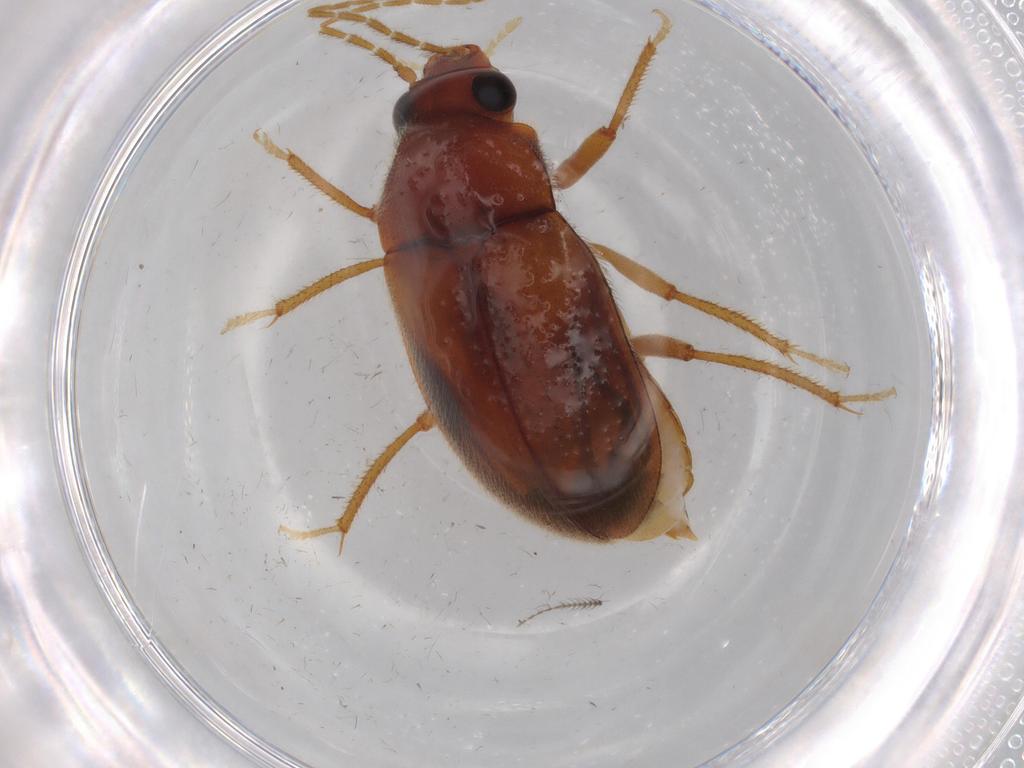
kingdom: Animalia
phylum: Arthropoda
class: Insecta
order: Coleoptera
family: Ptilodactylidae
